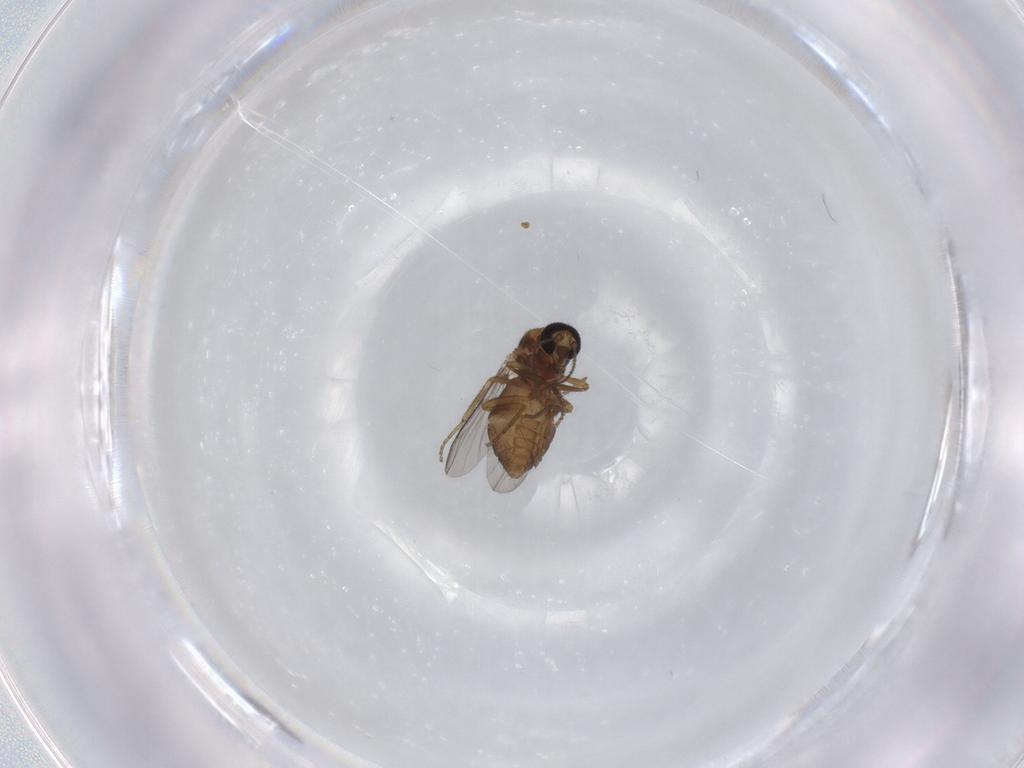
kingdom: Animalia
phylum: Arthropoda
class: Insecta
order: Diptera
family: Ceratopogonidae
